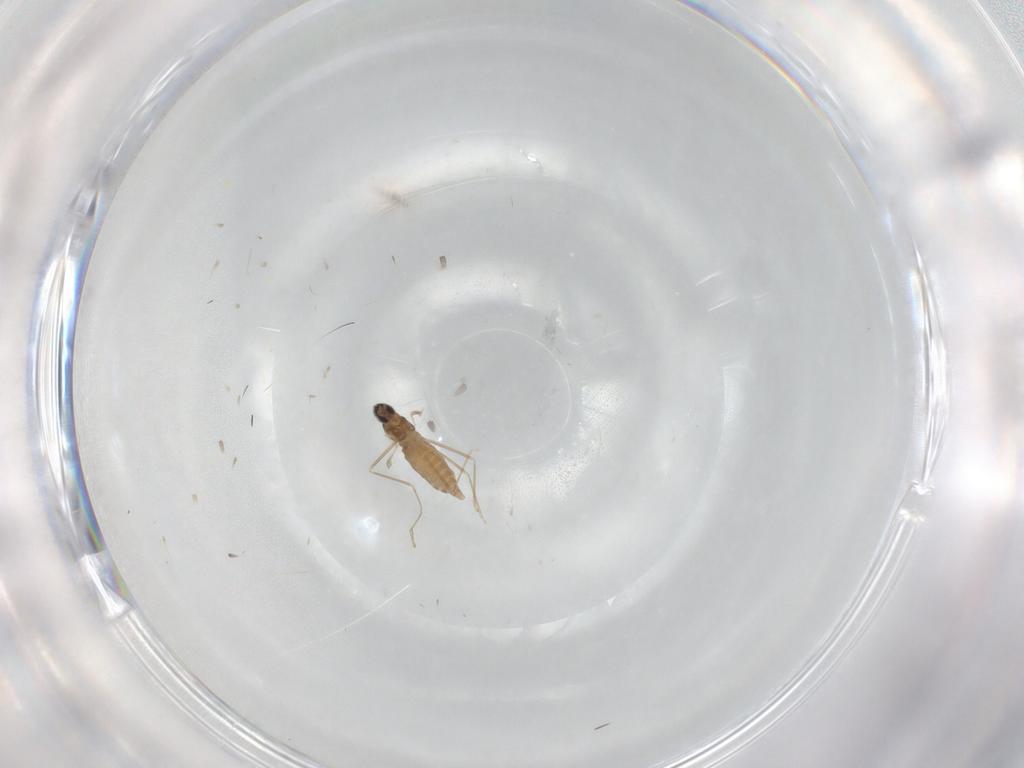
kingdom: Animalia
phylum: Arthropoda
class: Insecta
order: Diptera
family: Cecidomyiidae
